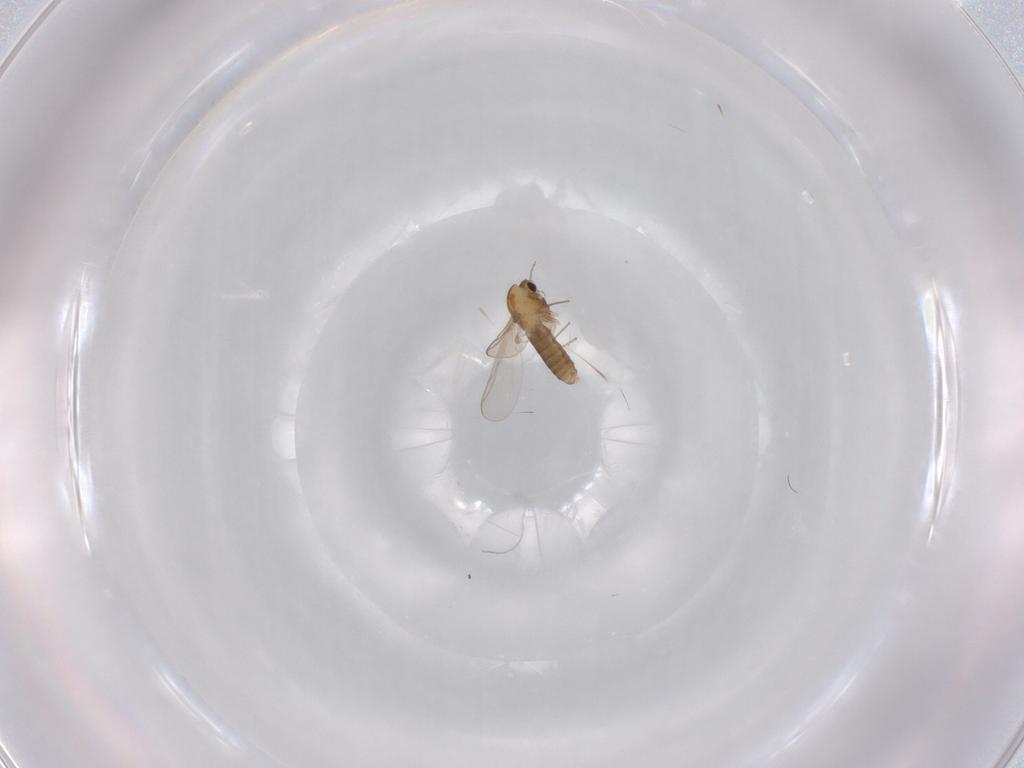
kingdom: Animalia
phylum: Arthropoda
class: Insecta
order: Diptera
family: Chironomidae
